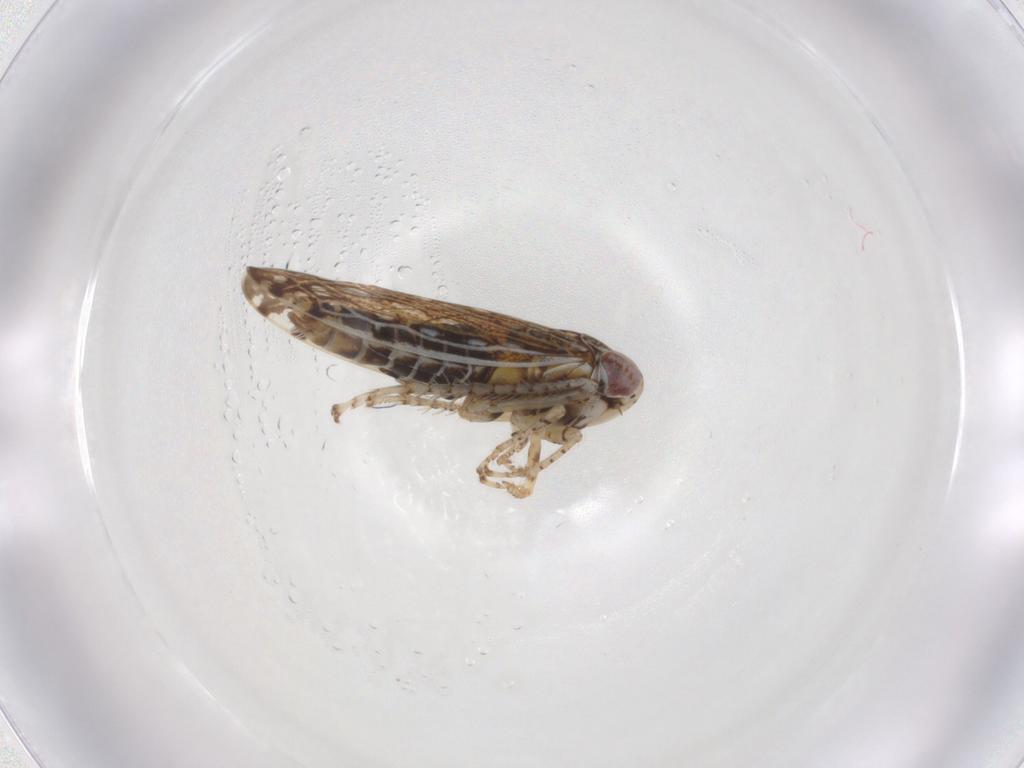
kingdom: Animalia
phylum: Arthropoda
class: Insecta
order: Hemiptera
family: Cicadellidae
